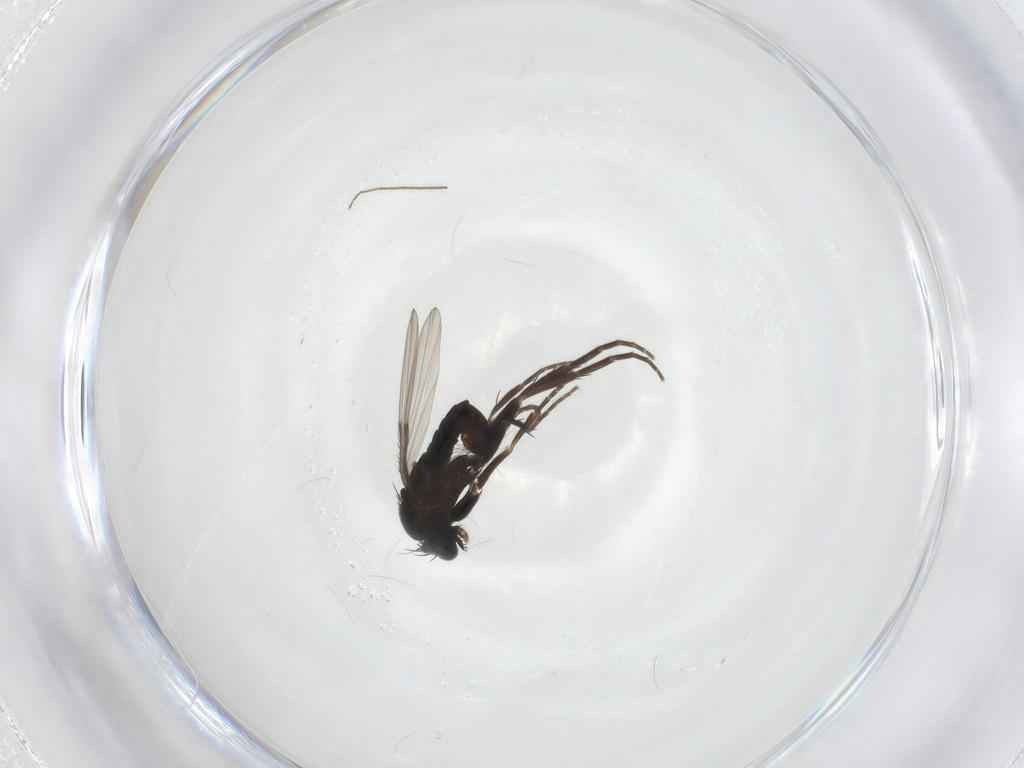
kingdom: Animalia
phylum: Arthropoda
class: Insecta
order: Diptera
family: Phoridae
